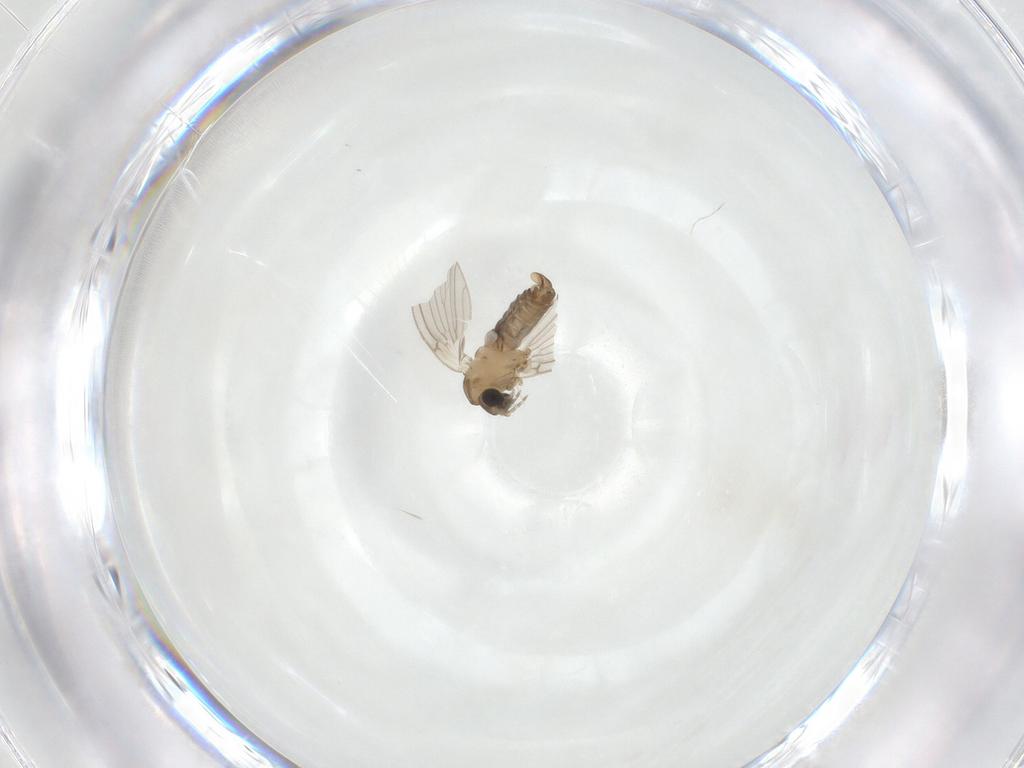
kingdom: Animalia
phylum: Arthropoda
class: Insecta
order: Diptera
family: Psychodidae
